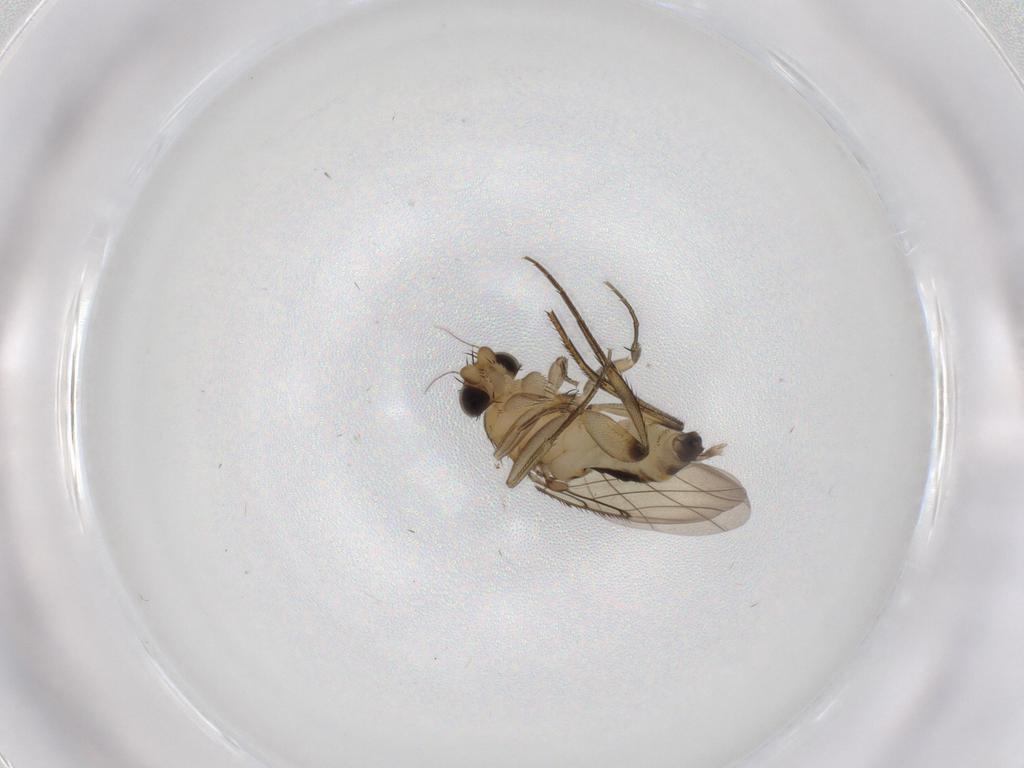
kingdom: Animalia
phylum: Arthropoda
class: Insecta
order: Diptera
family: Phoridae
